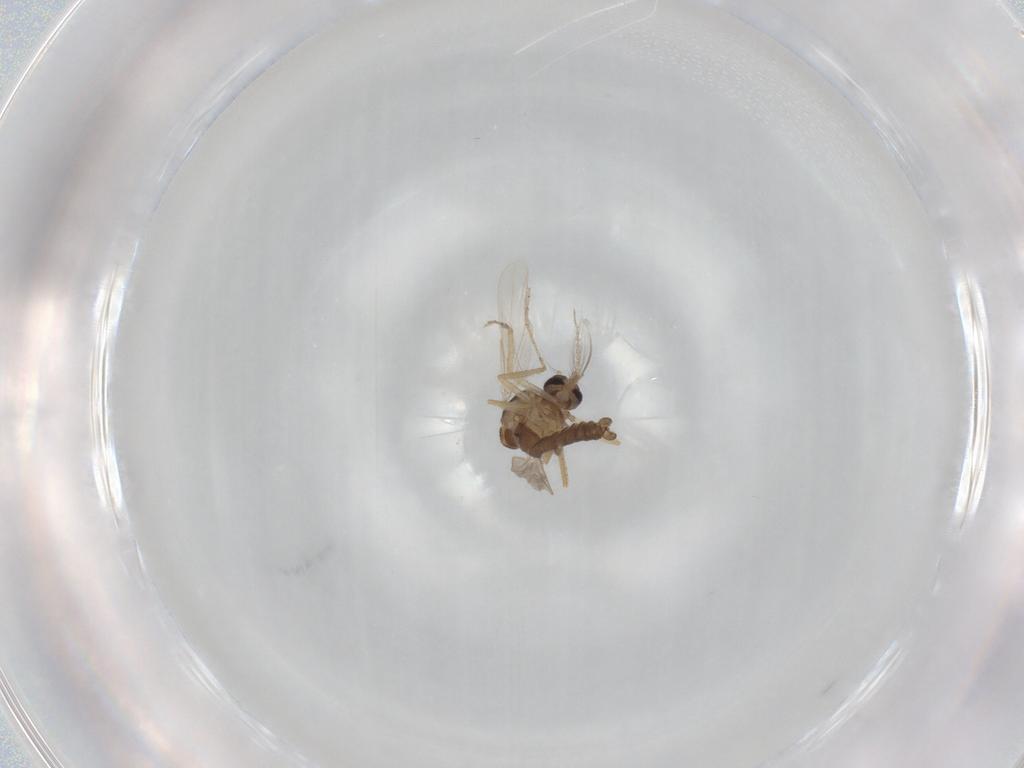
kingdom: Animalia
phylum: Arthropoda
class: Insecta
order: Diptera
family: Ceratopogonidae
